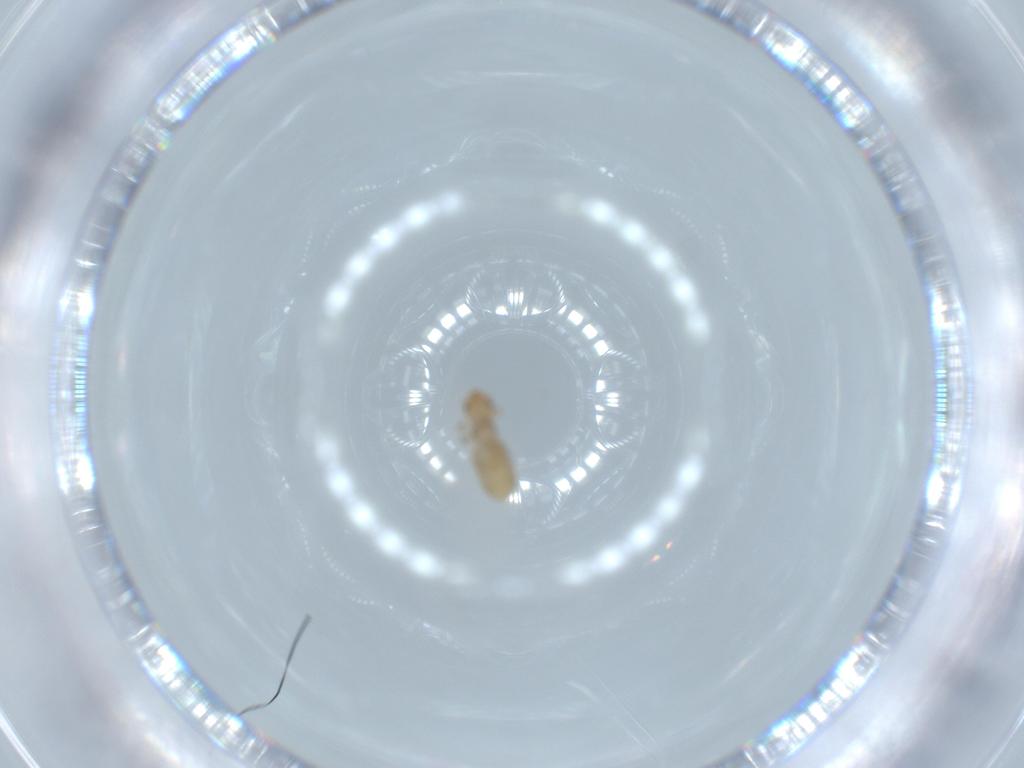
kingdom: Animalia
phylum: Arthropoda
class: Insecta
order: Psocodea
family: Liposcelididae
